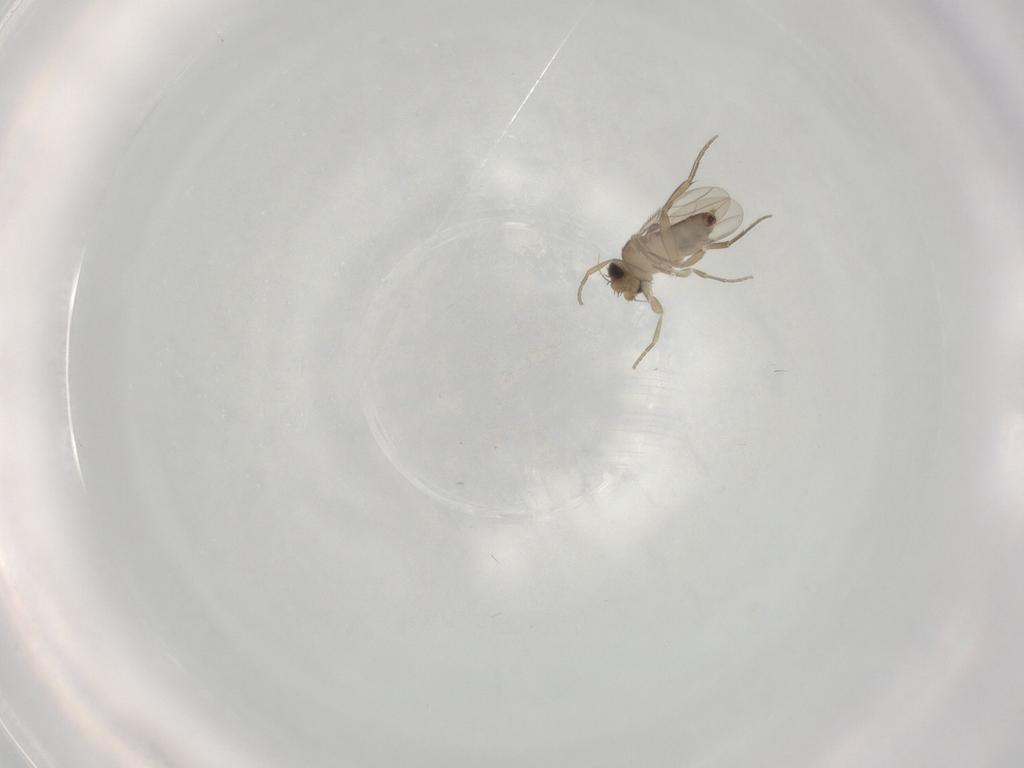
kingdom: Animalia
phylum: Arthropoda
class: Insecta
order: Diptera
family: Phoridae
